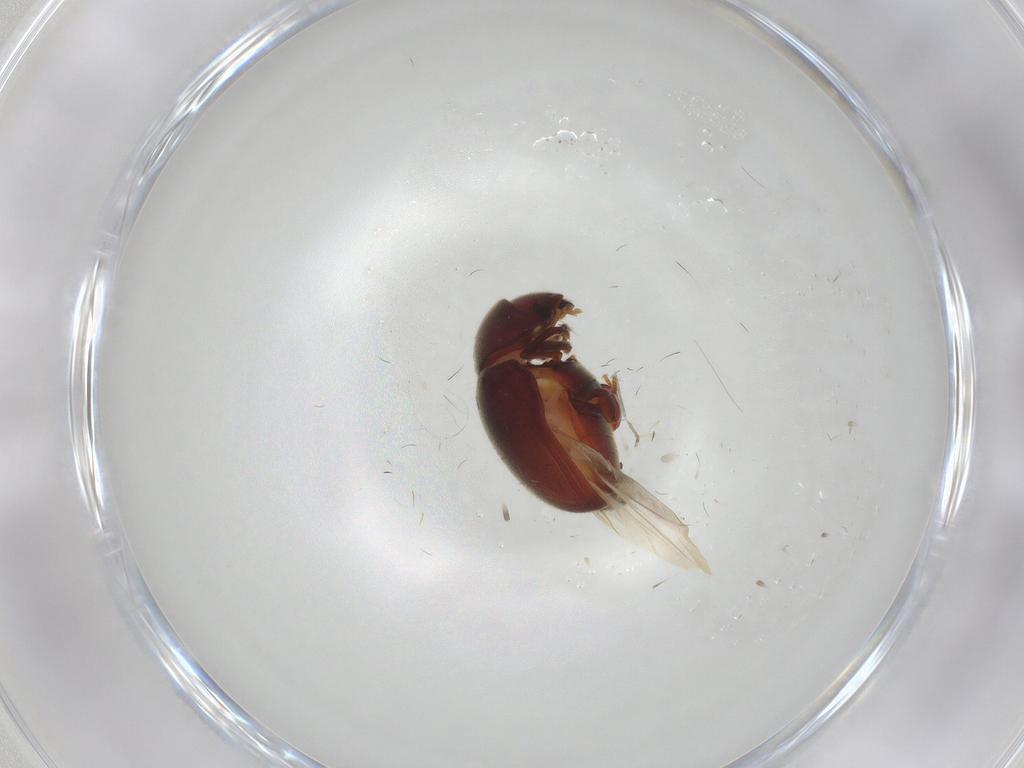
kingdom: Animalia
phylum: Arthropoda
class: Insecta
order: Coleoptera
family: Ptinidae
